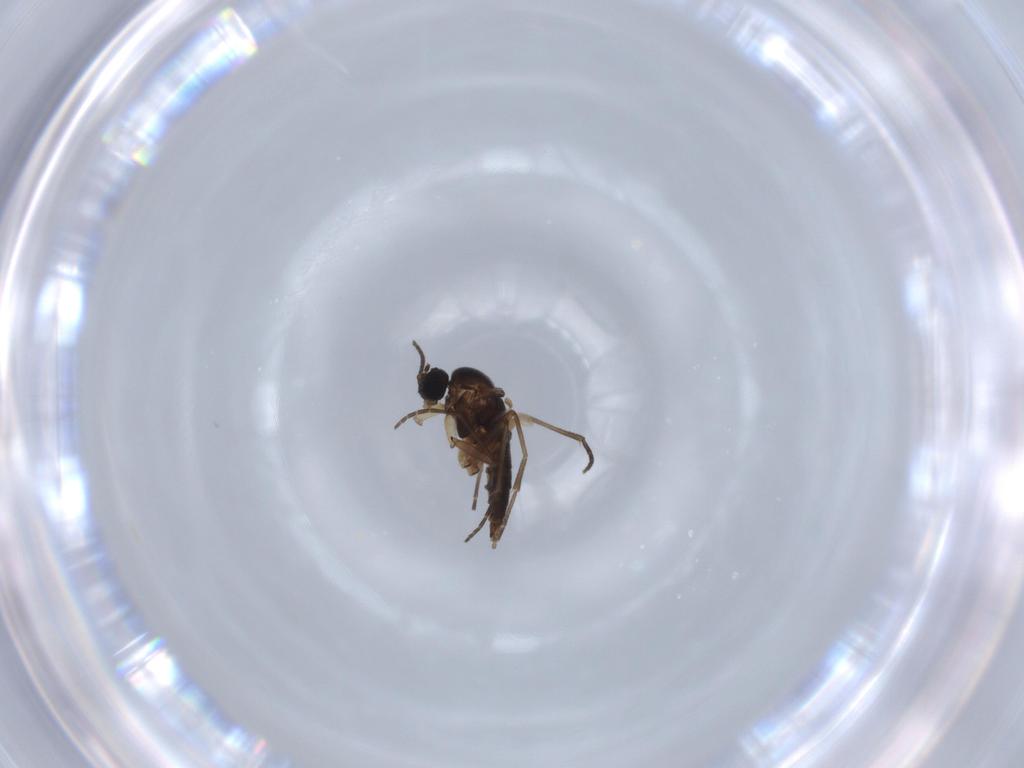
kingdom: Animalia
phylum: Arthropoda
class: Insecta
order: Diptera
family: Sciaridae
